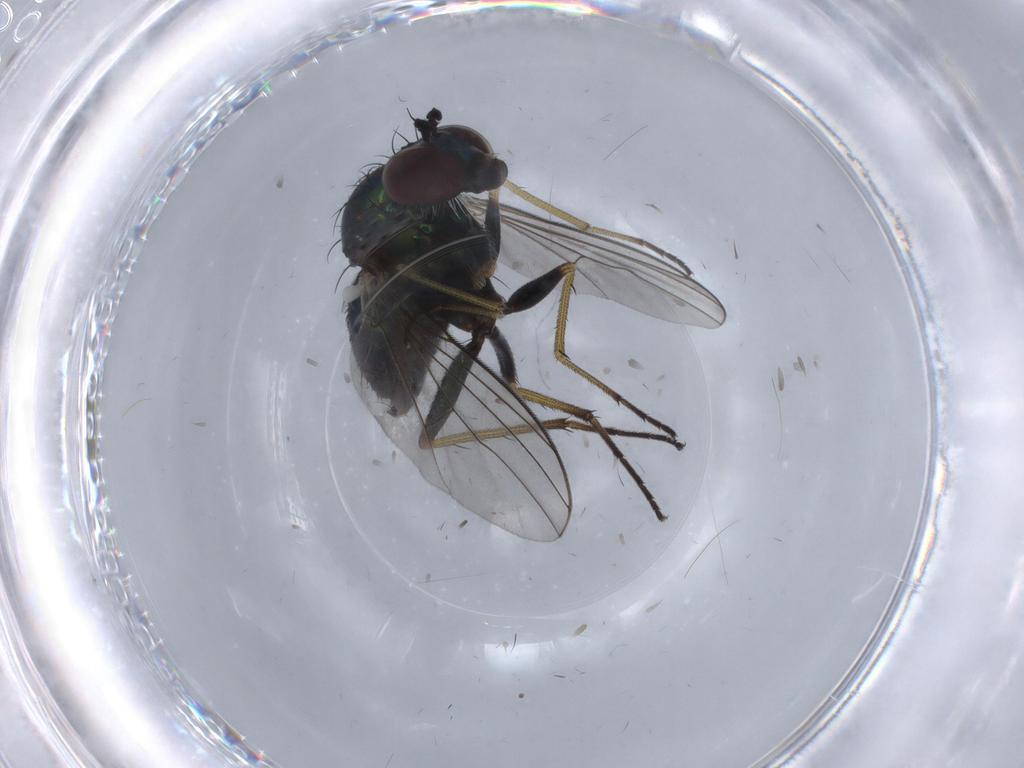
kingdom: Animalia
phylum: Arthropoda
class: Insecta
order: Diptera
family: Dolichopodidae
